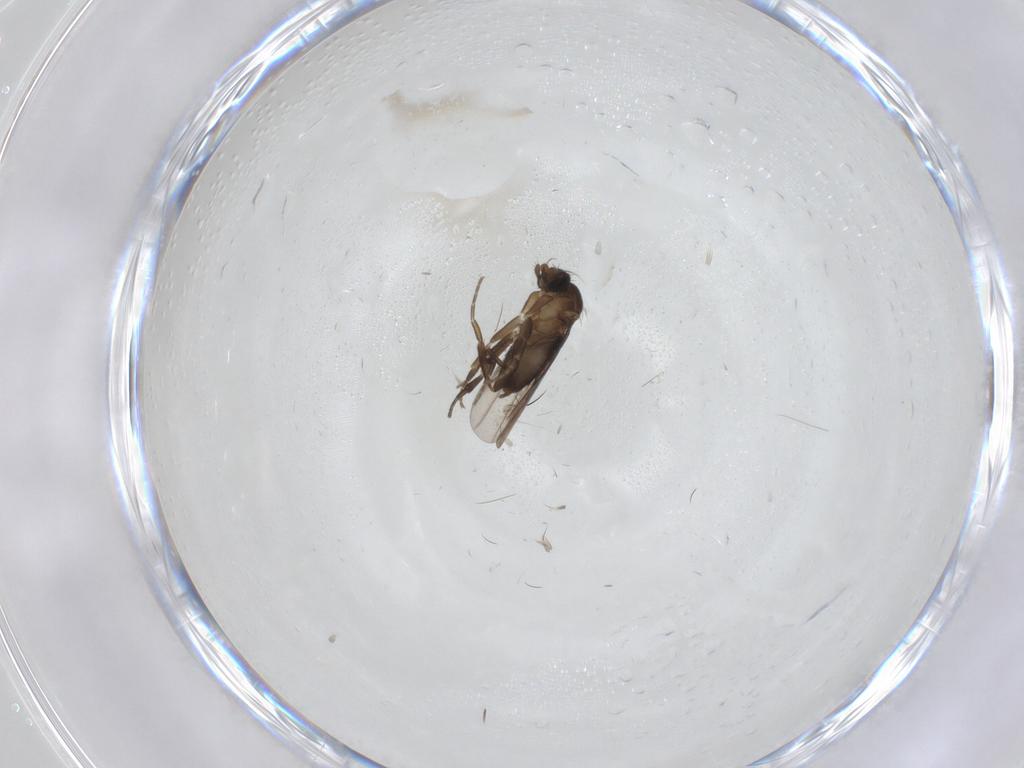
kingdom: Animalia
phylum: Arthropoda
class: Insecta
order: Diptera
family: Phoridae
